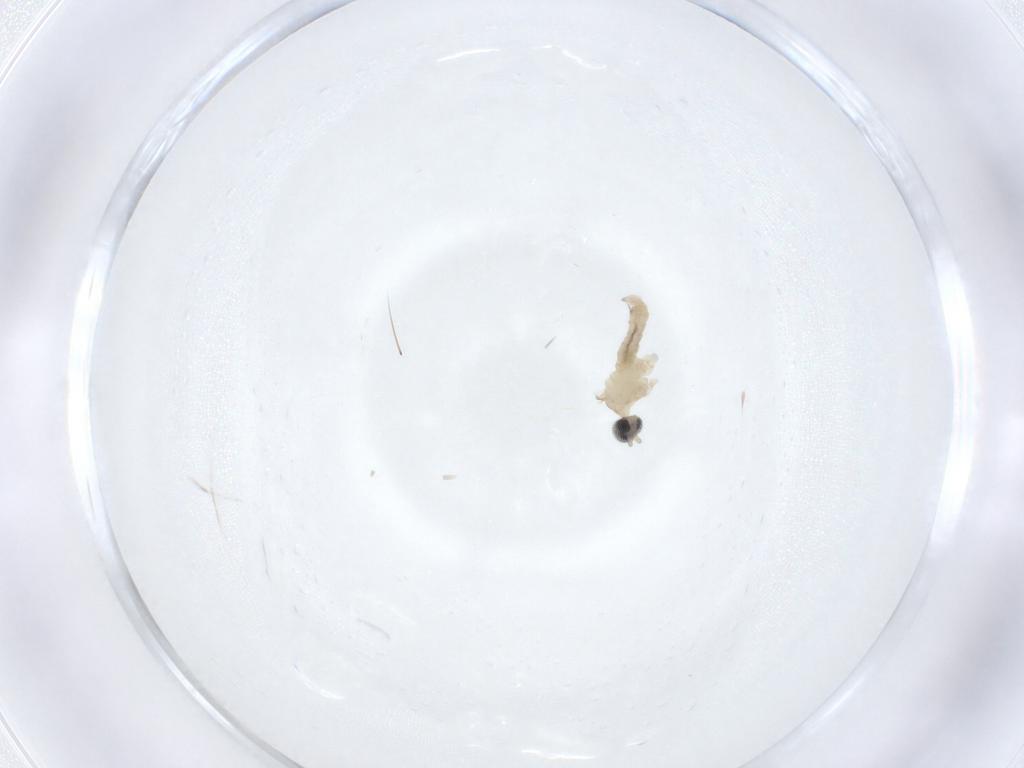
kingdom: Animalia
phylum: Arthropoda
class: Insecta
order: Diptera
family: Cecidomyiidae
